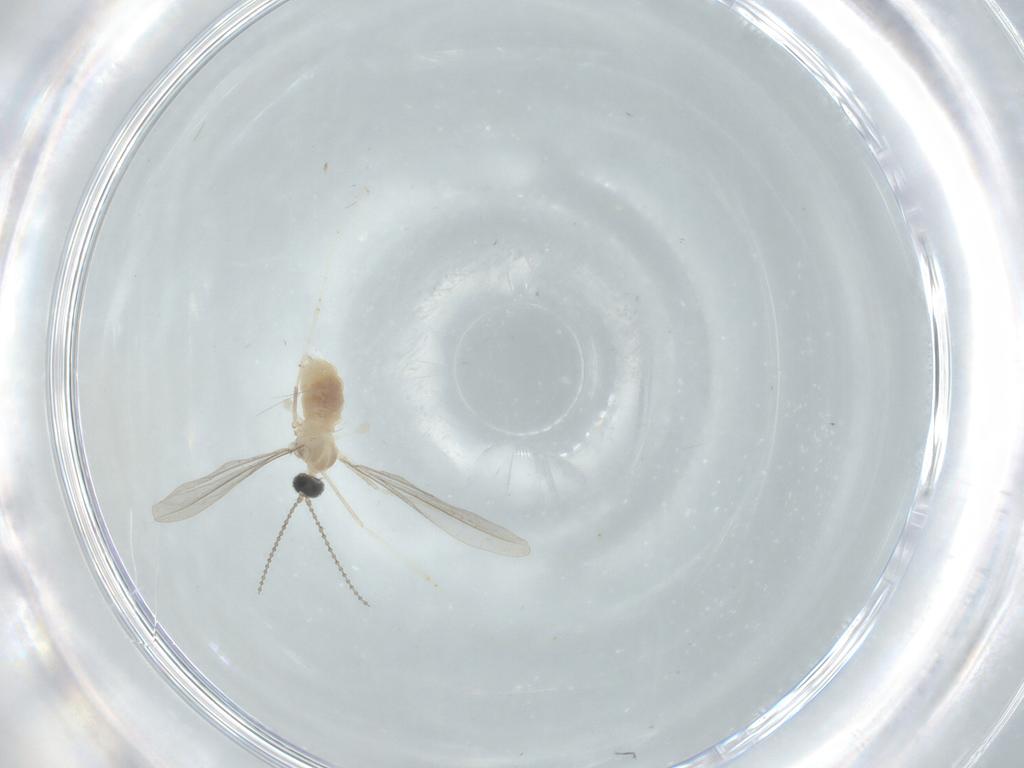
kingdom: Animalia
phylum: Arthropoda
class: Insecta
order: Diptera
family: Cecidomyiidae
